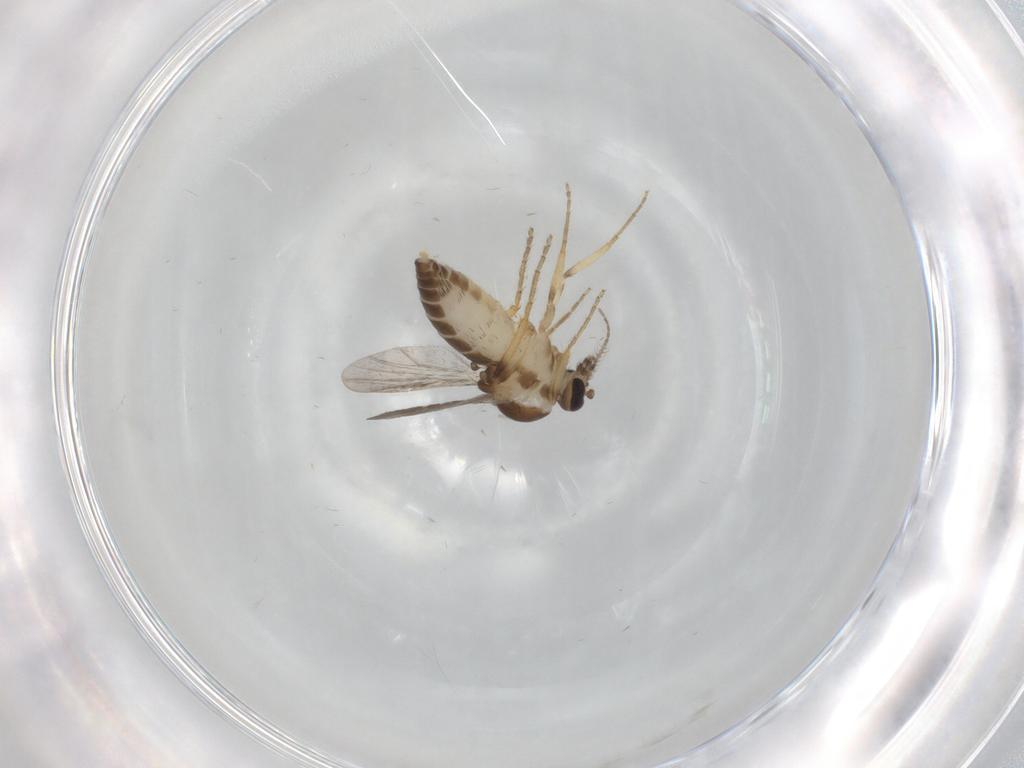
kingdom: Animalia
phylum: Arthropoda
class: Insecta
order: Diptera
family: Ceratopogonidae
